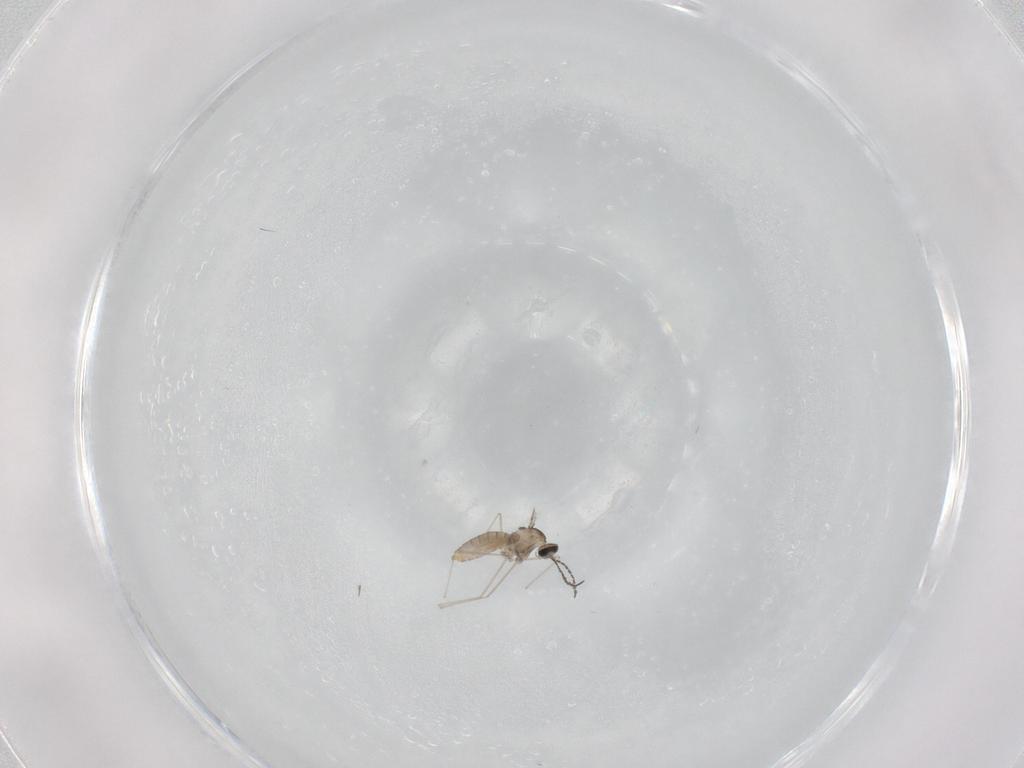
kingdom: Animalia
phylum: Arthropoda
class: Insecta
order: Diptera
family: Cecidomyiidae
